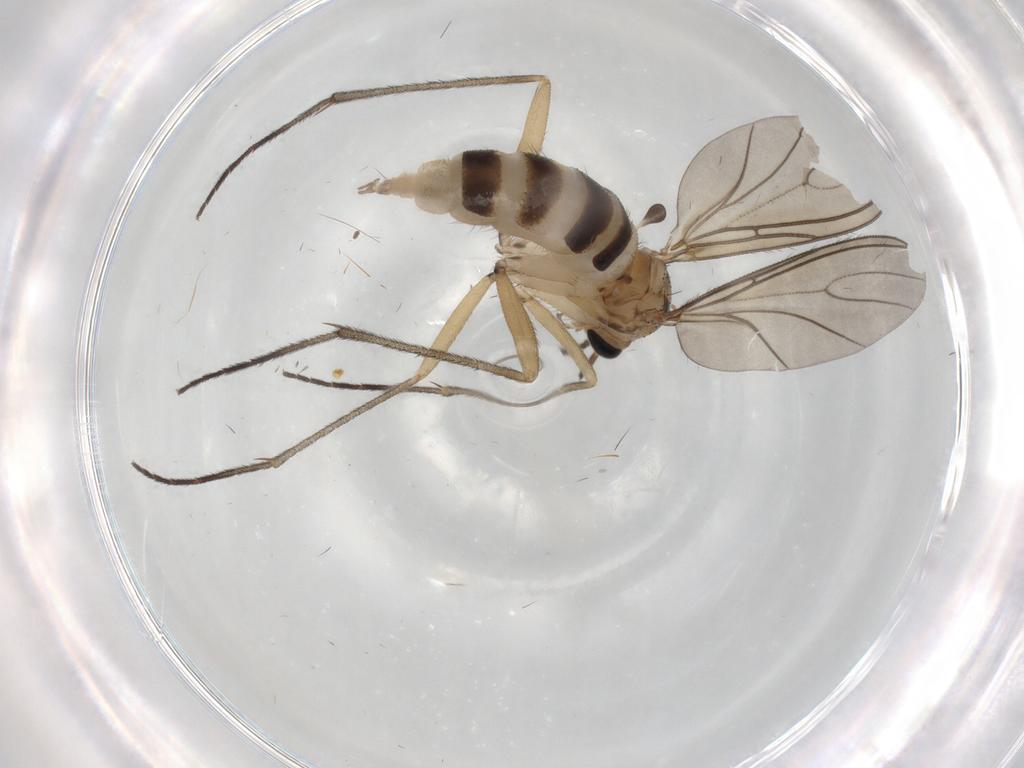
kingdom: Animalia
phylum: Arthropoda
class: Insecta
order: Diptera
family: Sciaridae
